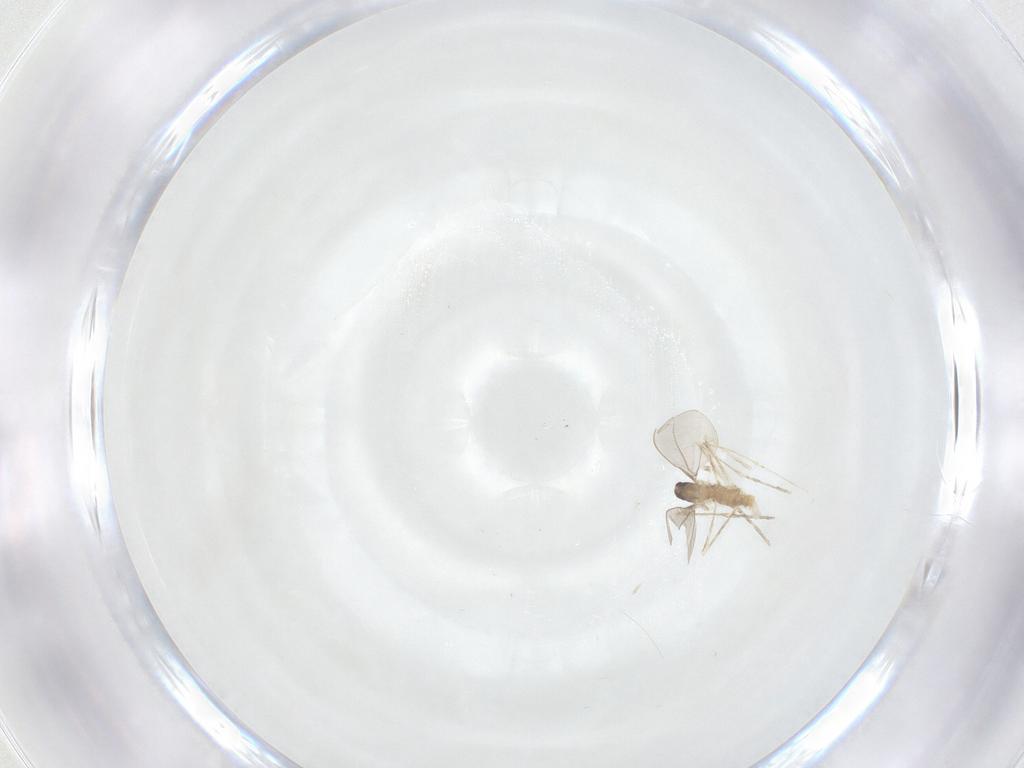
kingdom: Animalia
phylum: Arthropoda
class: Insecta
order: Diptera
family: Cecidomyiidae
